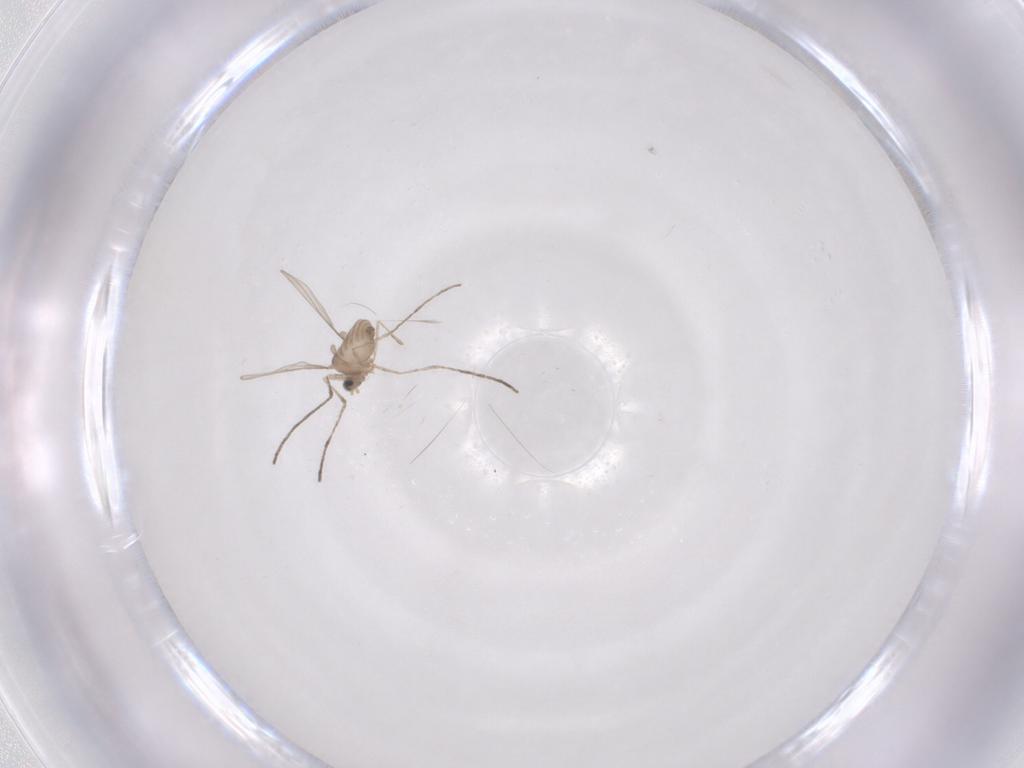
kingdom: Animalia
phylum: Arthropoda
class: Insecta
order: Diptera
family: Cecidomyiidae
